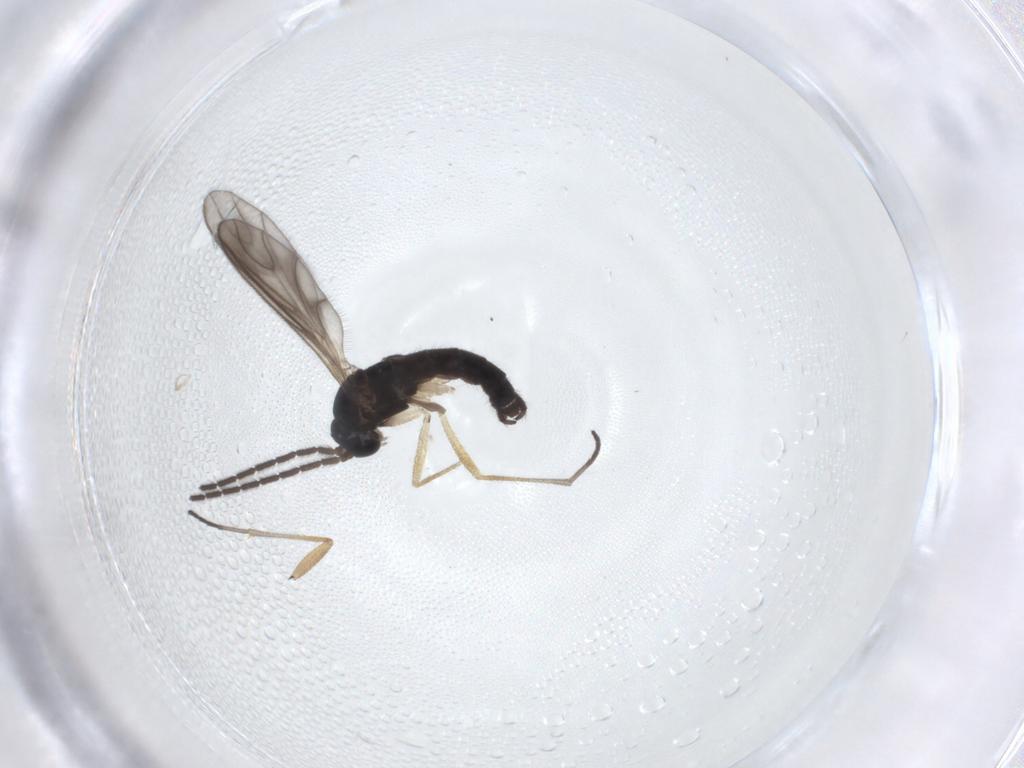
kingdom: Animalia
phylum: Arthropoda
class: Insecta
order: Diptera
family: Sciaridae
